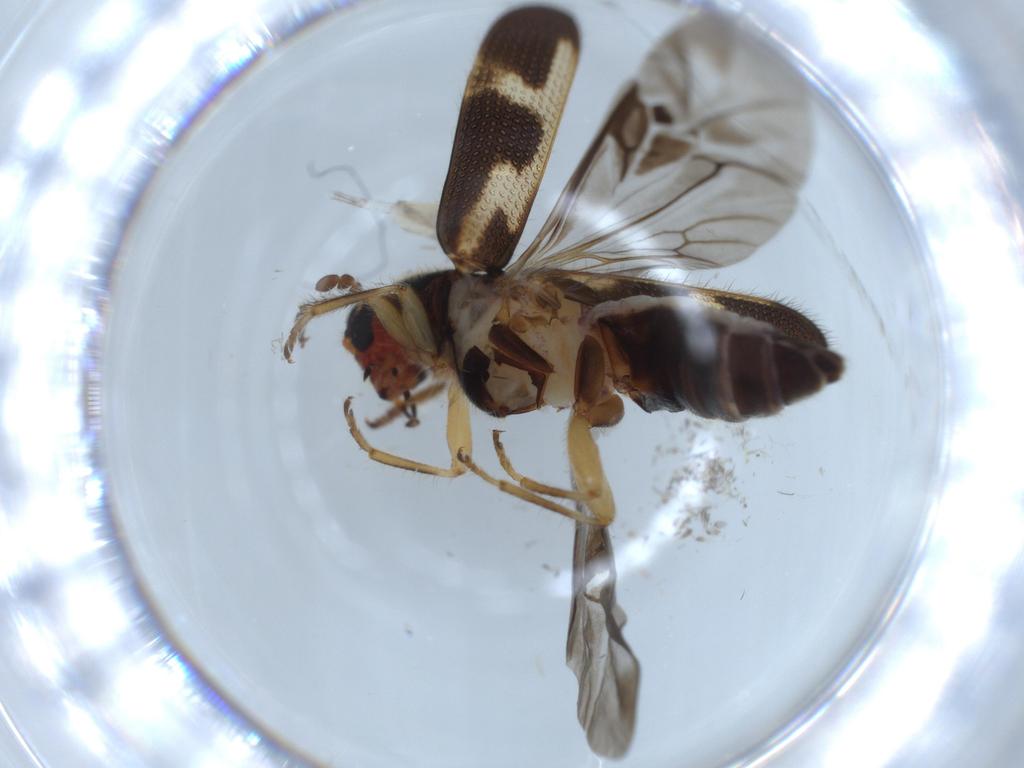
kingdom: Animalia
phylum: Arthropoda
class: Insecta
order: Coleoptera
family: Cleridae
